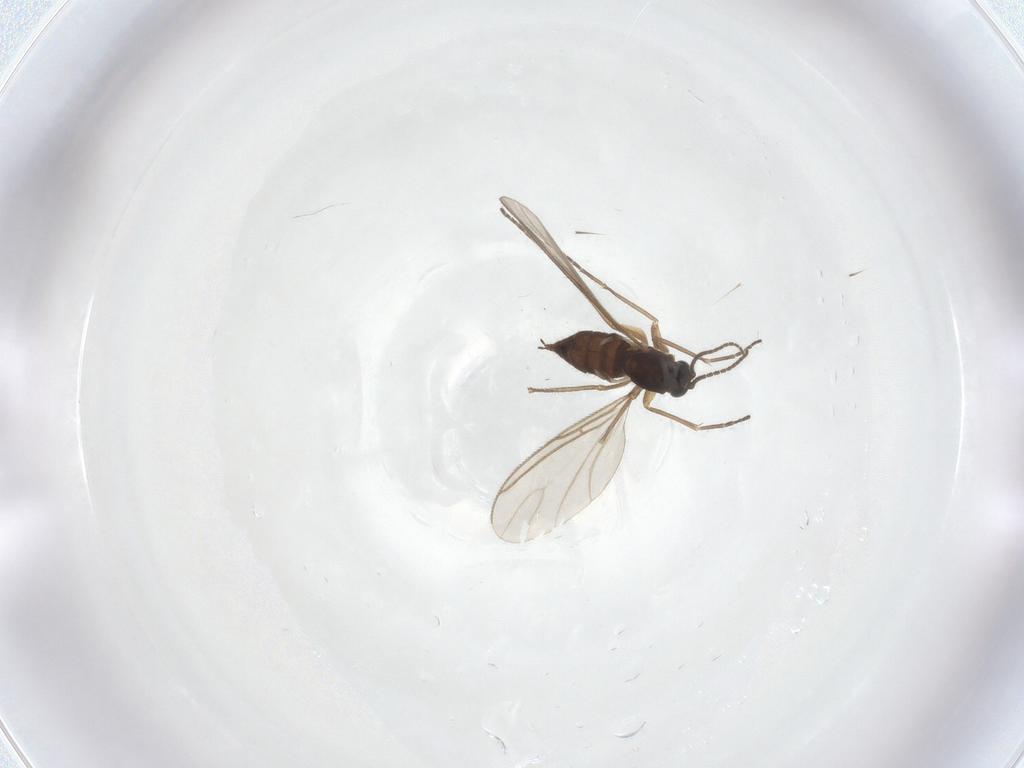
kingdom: Animalia
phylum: Arthropoda
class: Insecta
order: Diptera
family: Sciaridae
